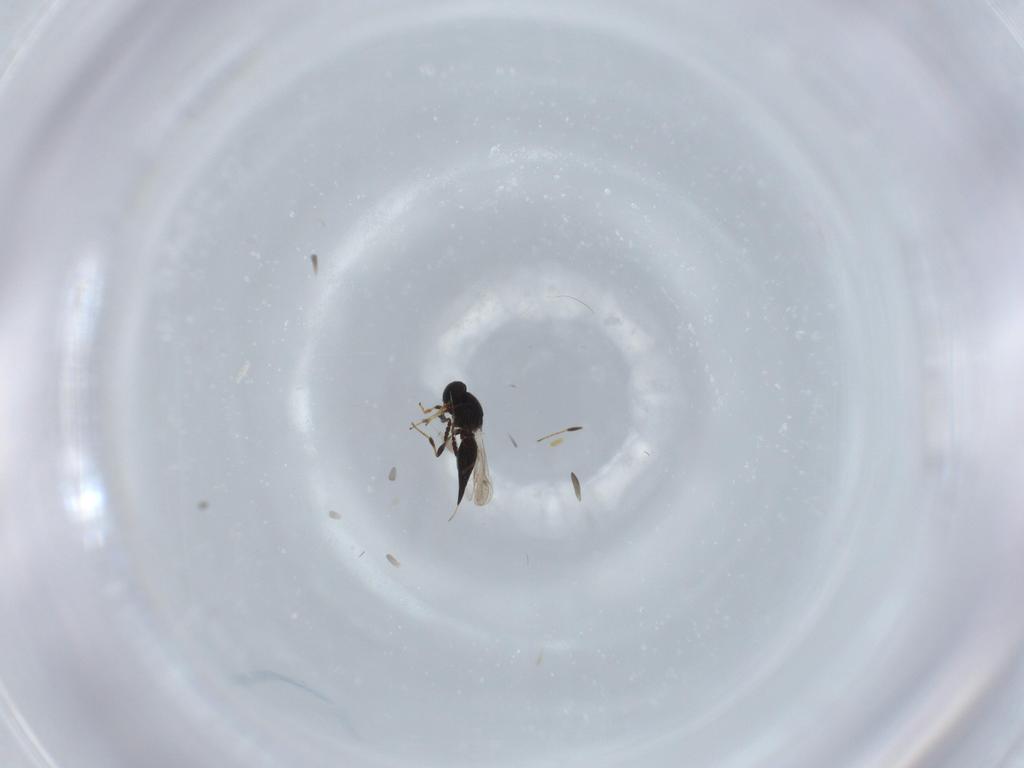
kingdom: Animalia
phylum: Arthropoda
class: Insecta
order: Hymenoptera
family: Platygastridae
